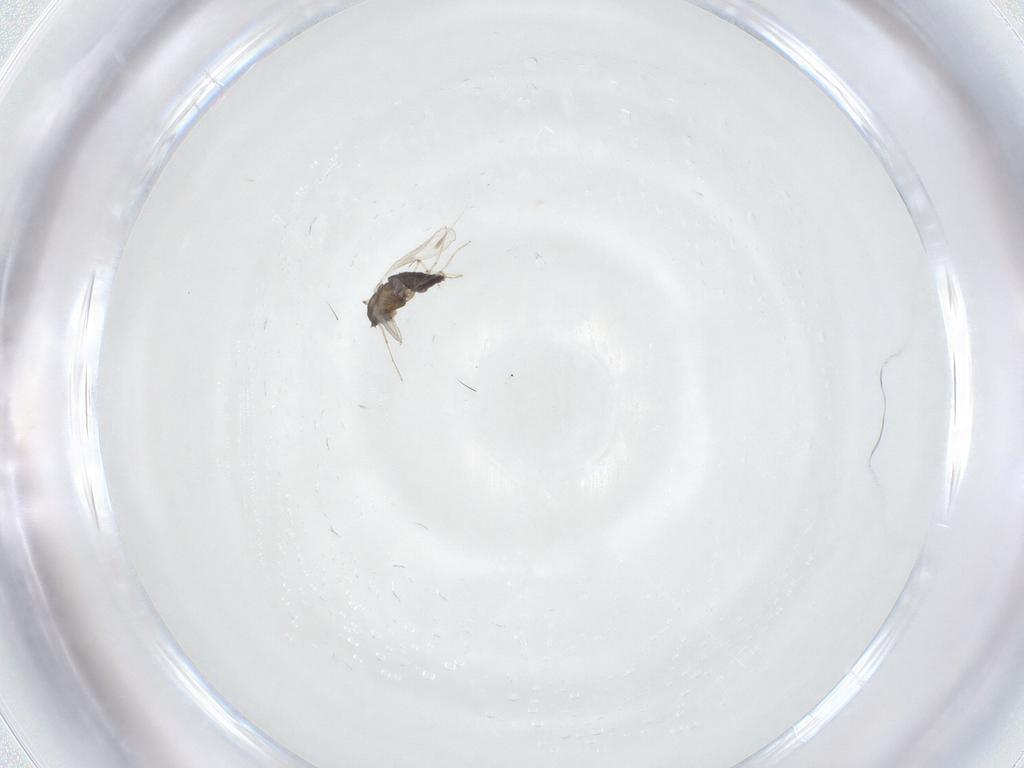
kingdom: Animalia
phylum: Arthropoda
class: Insecta
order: Diptera
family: Chironomidae
